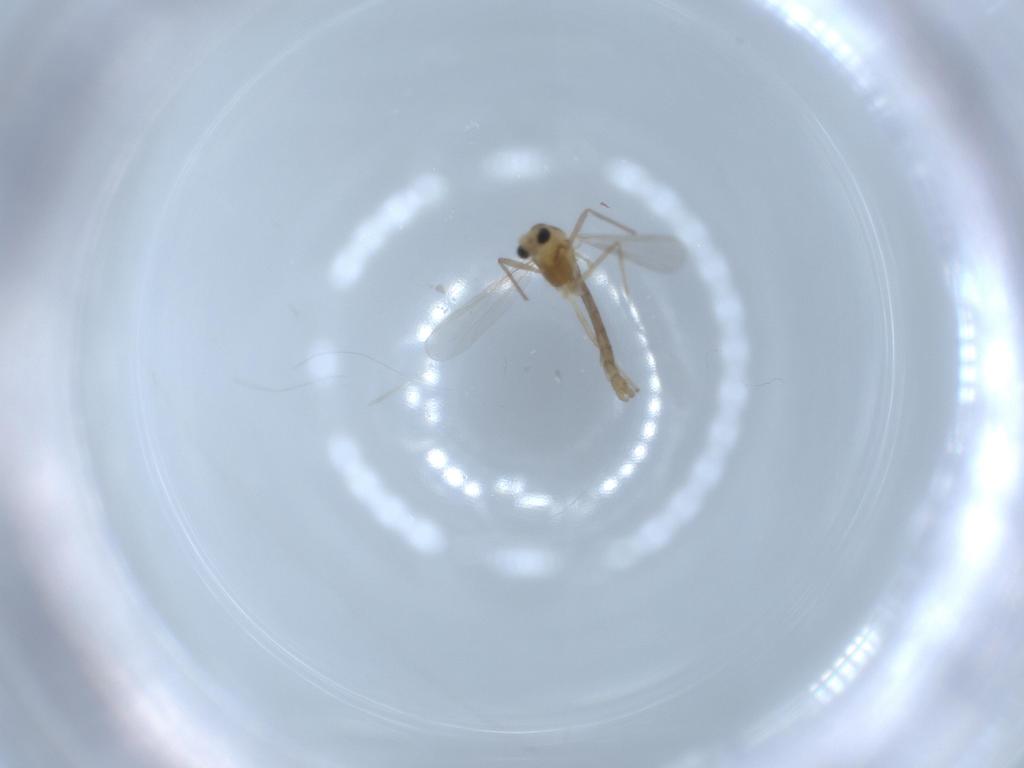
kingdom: Animalia
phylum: Arthropoda
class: Insecta
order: Diptera
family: Chironomidae
